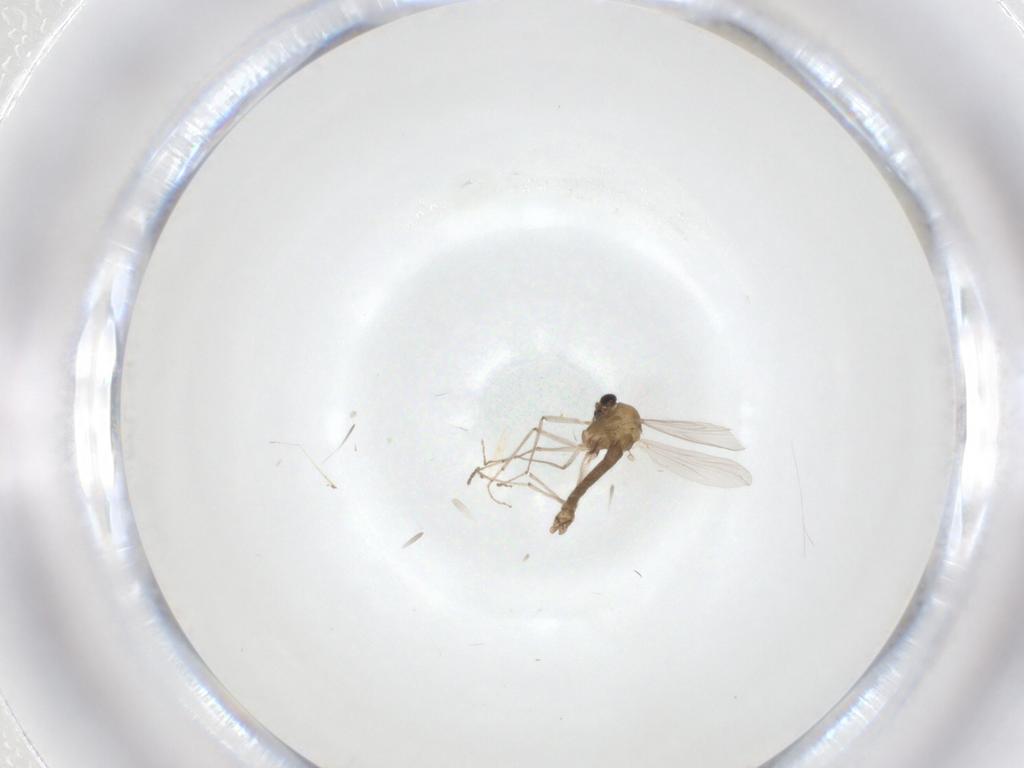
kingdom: Animalia
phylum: Arthropoda
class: Insecta
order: Diptera
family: Chironomidae
